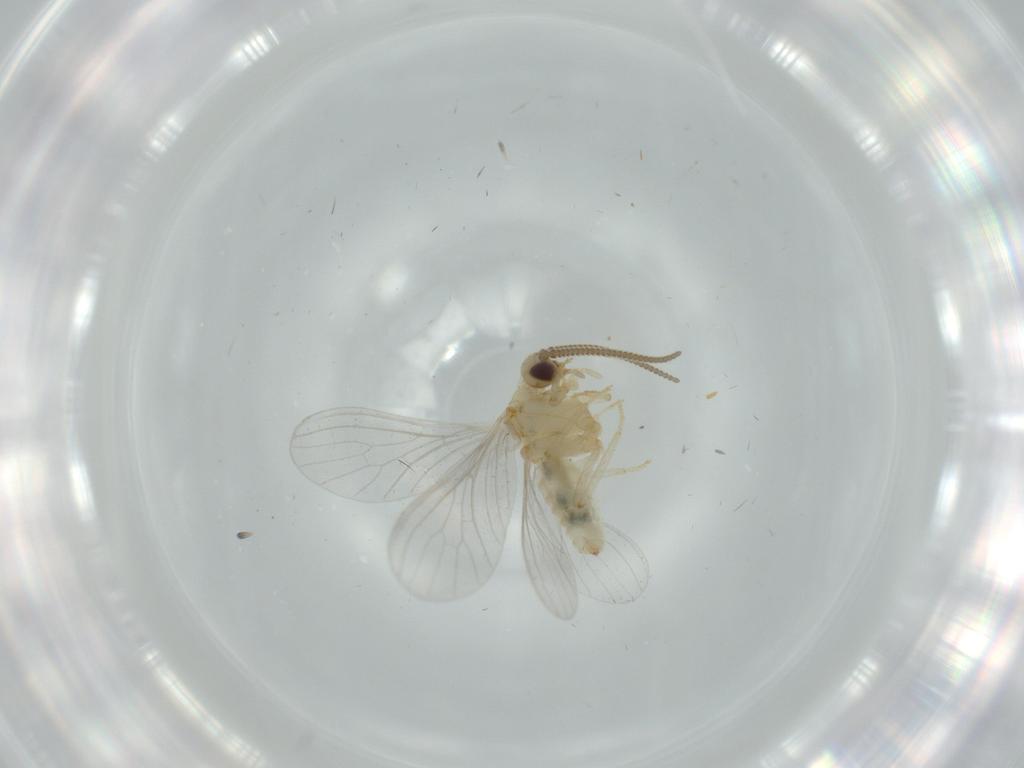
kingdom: Animalia
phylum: Arthropoda
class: Insecta
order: Neuroptera
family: Coniopterygidae
